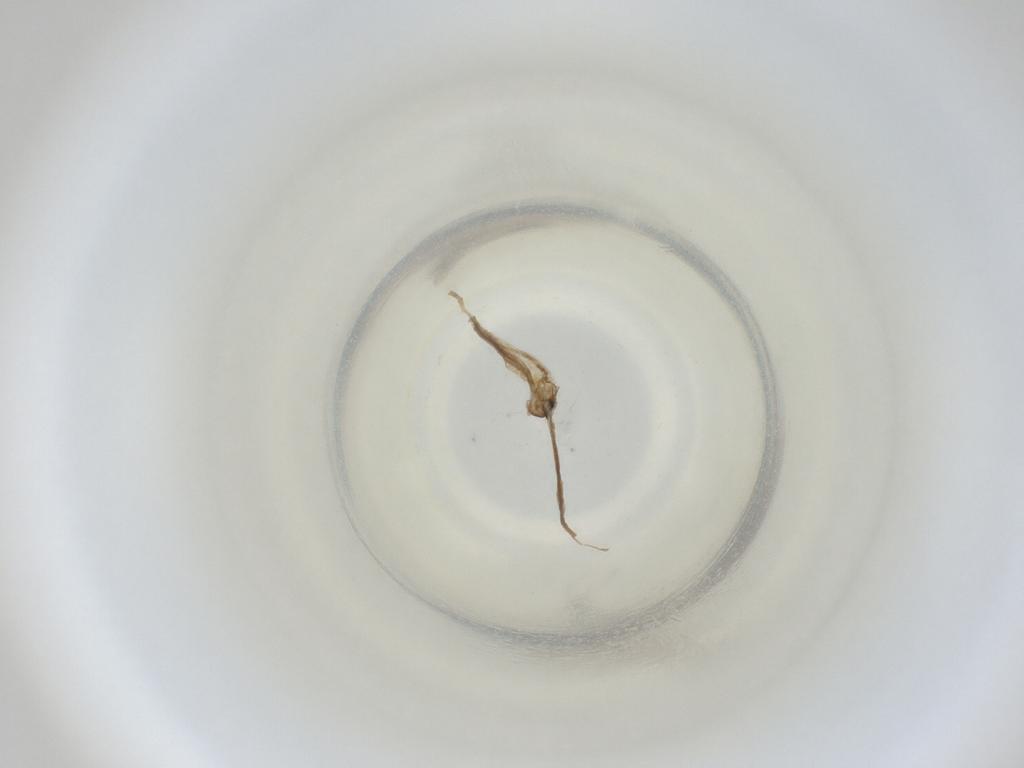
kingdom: Animalia
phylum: Arthropoda
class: Insecta
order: Diptera
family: Cecidomyiidae
